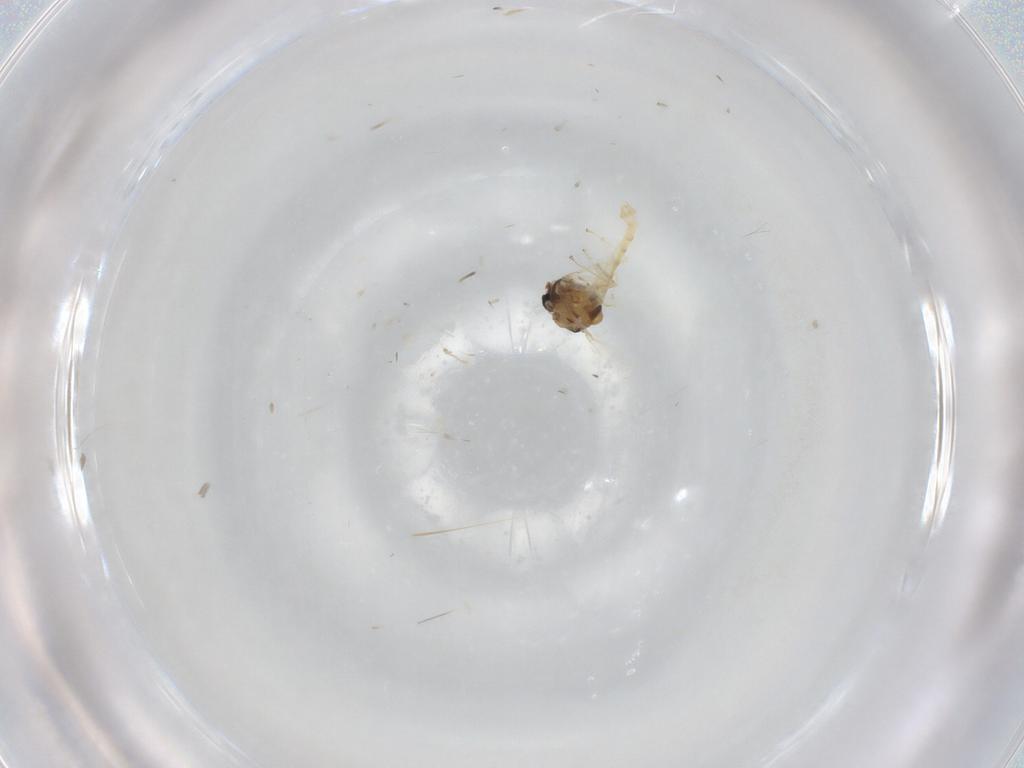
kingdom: Animalia
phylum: Arthropoda
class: Insecta
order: Diptera
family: Chironomidae
